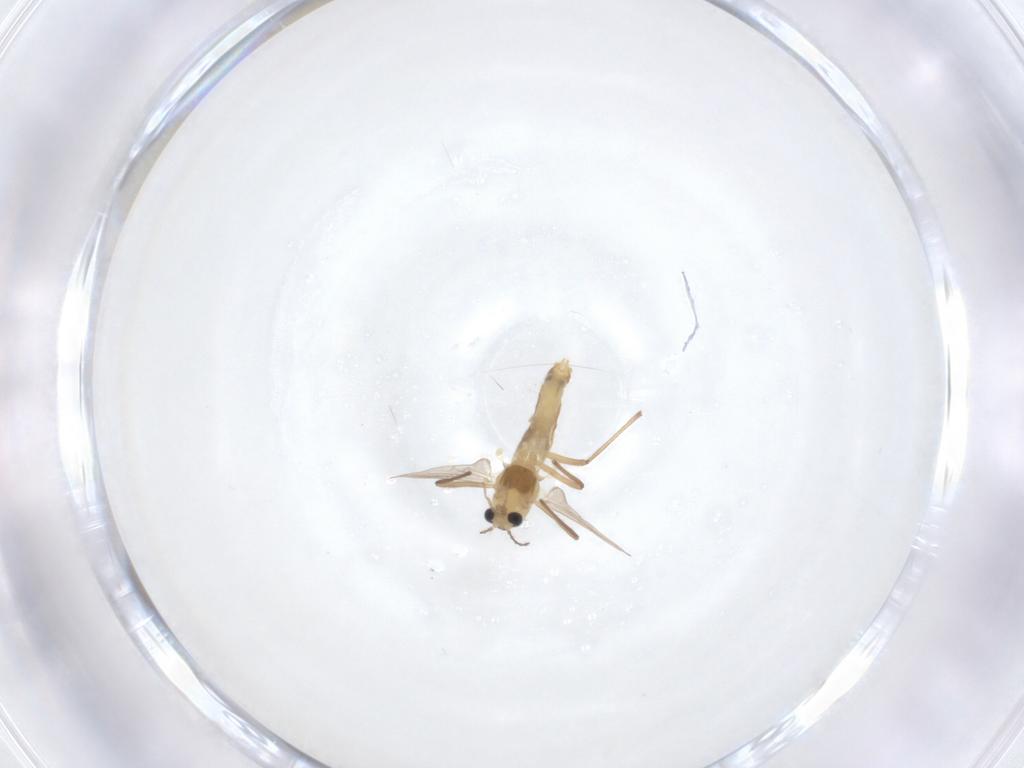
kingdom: Animalia
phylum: Arthropoda
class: Insecta
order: Diptera
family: Chironomidae
